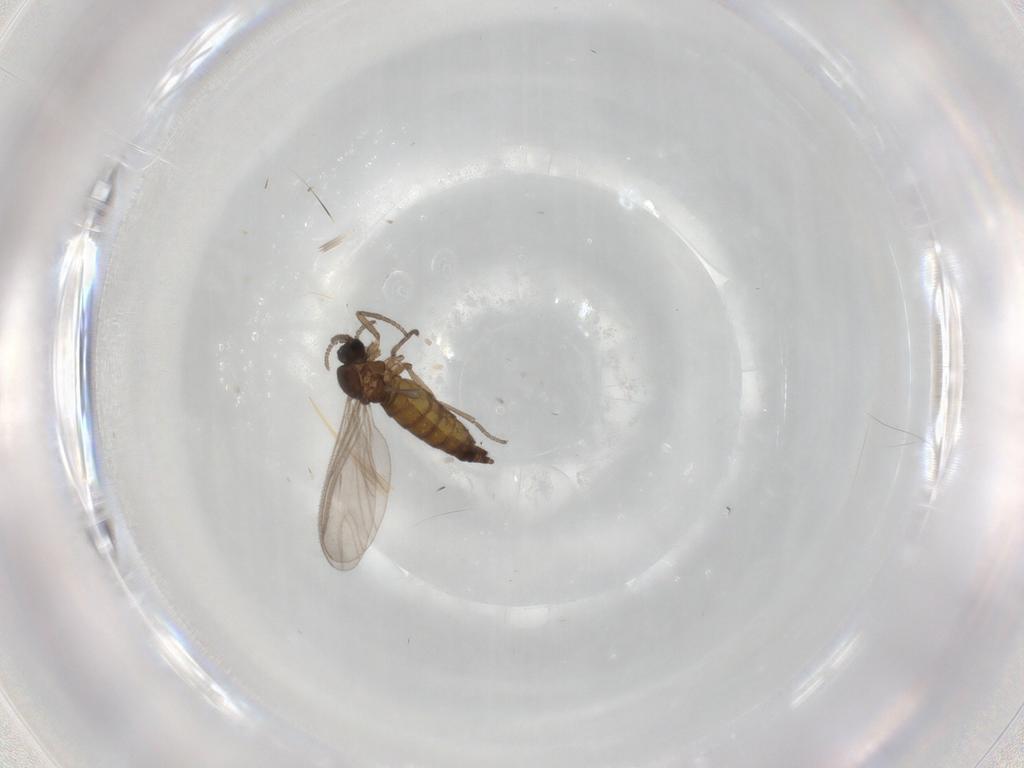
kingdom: Animalia
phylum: Arthropoda
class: Insecta
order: Diptera
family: Sciaridae
